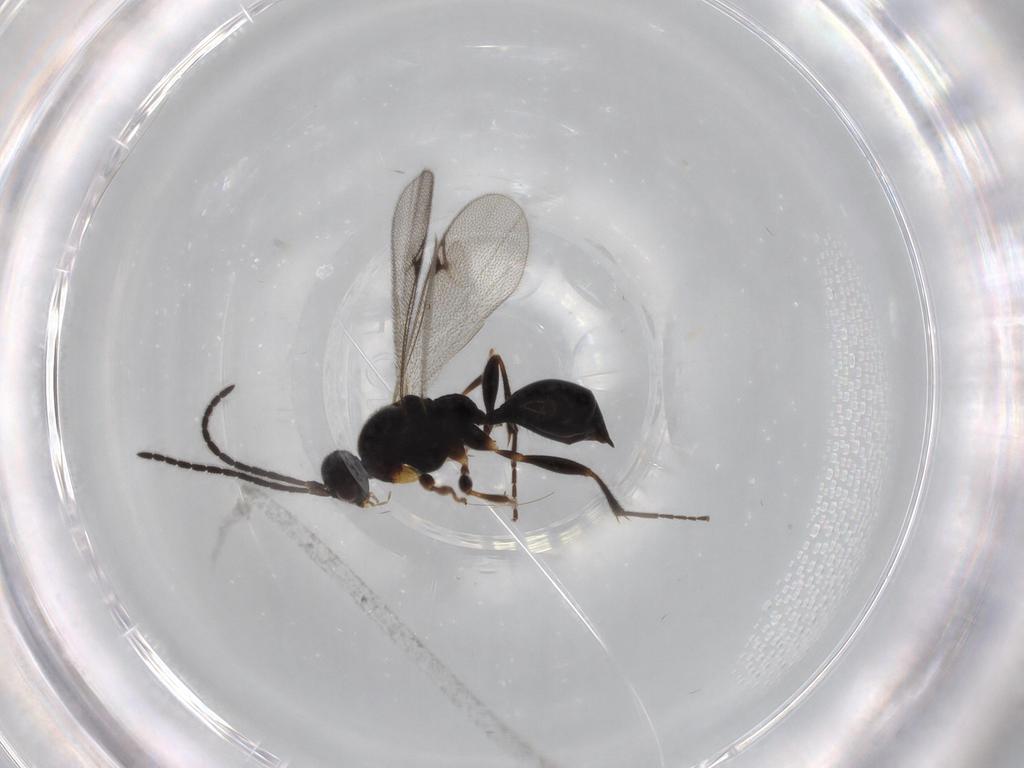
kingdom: Animalia
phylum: Arthropoda
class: Insecta
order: Hymenoptera
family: Proctotrupidae
